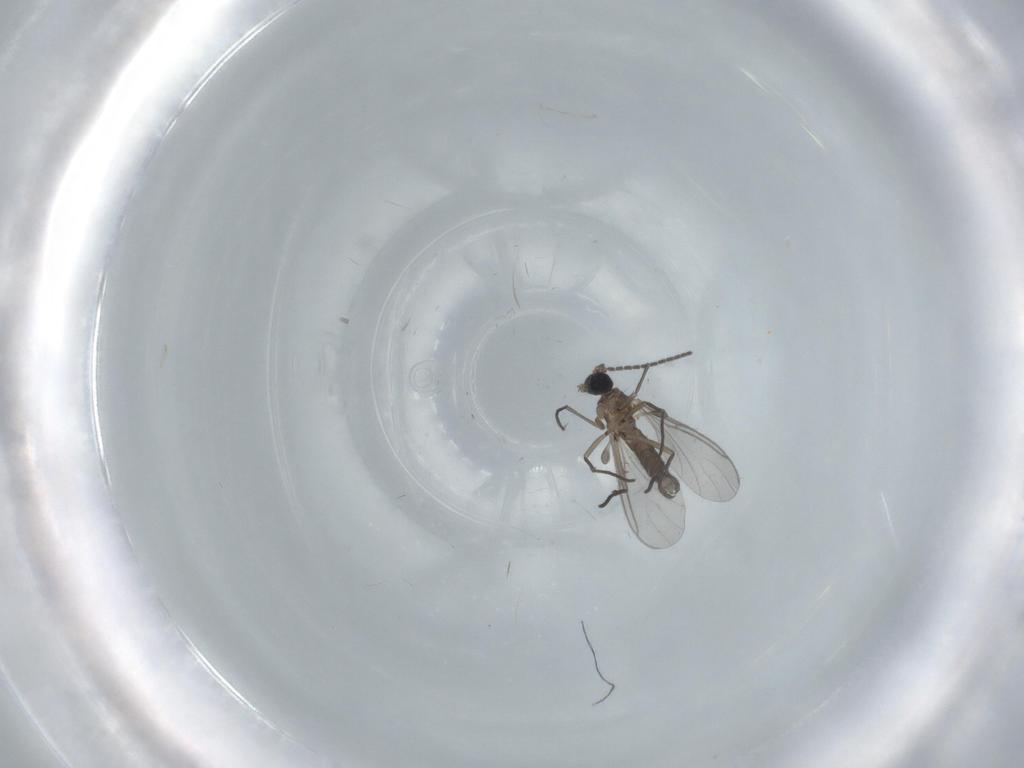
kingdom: Animalia
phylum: Arthropoda
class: Insecta
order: Diptera
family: Sciaridae
